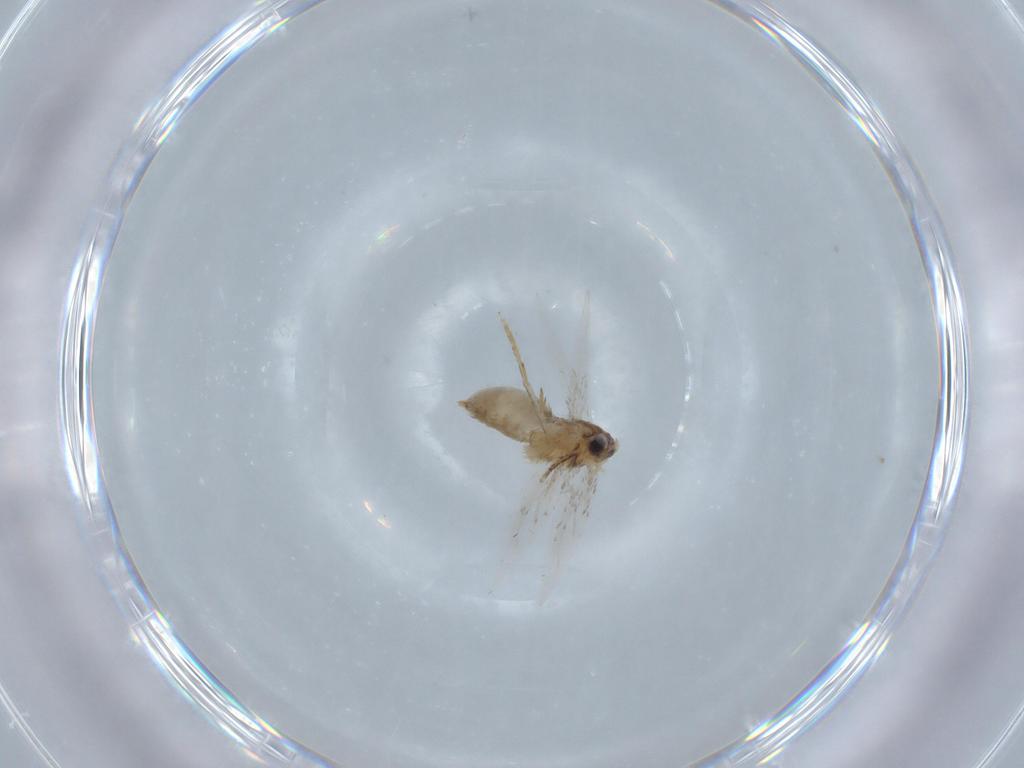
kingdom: Animalia
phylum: Arthropoda
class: Insecta
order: Lepidoptera
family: Nepticulidae
